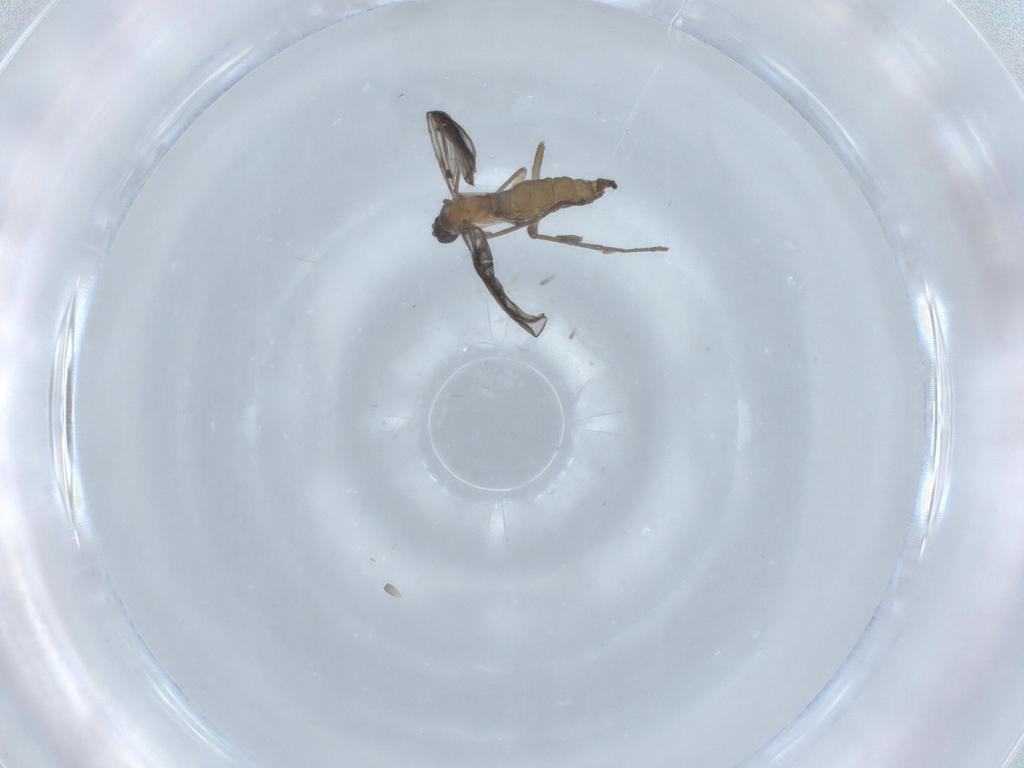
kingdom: Animalia
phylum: Arthropoda
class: Insecta
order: Diptera
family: Sciaridae
